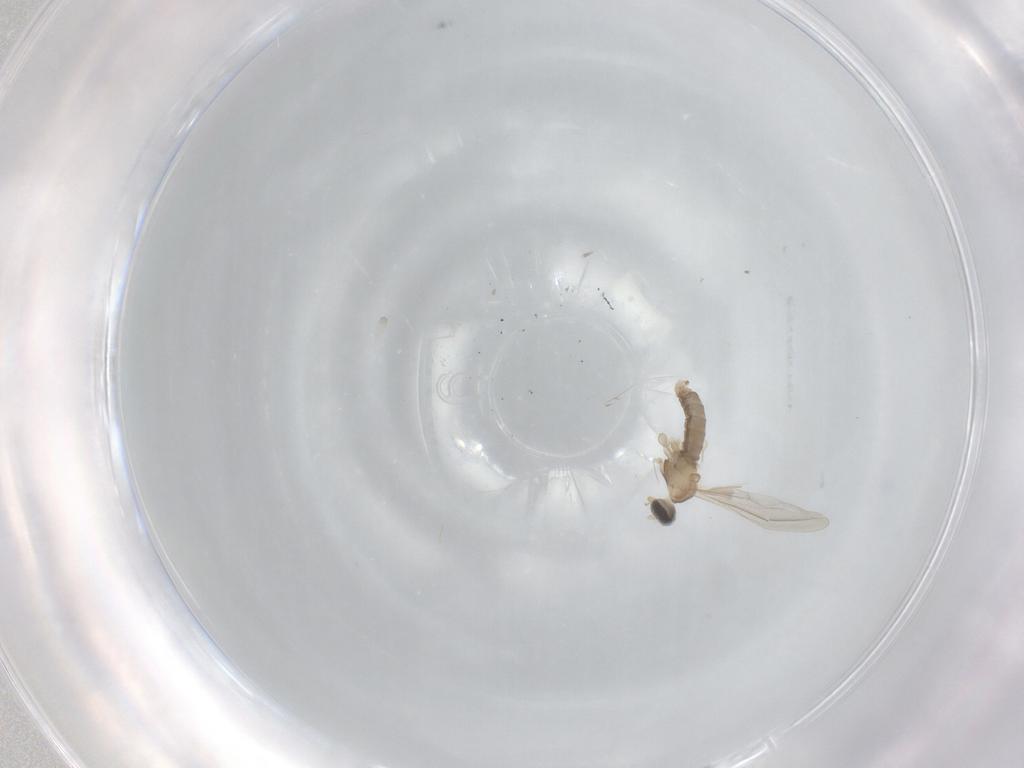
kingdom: Animalia
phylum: Arthropoda
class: Insecta
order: Diptera
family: Cecidomyiidae
